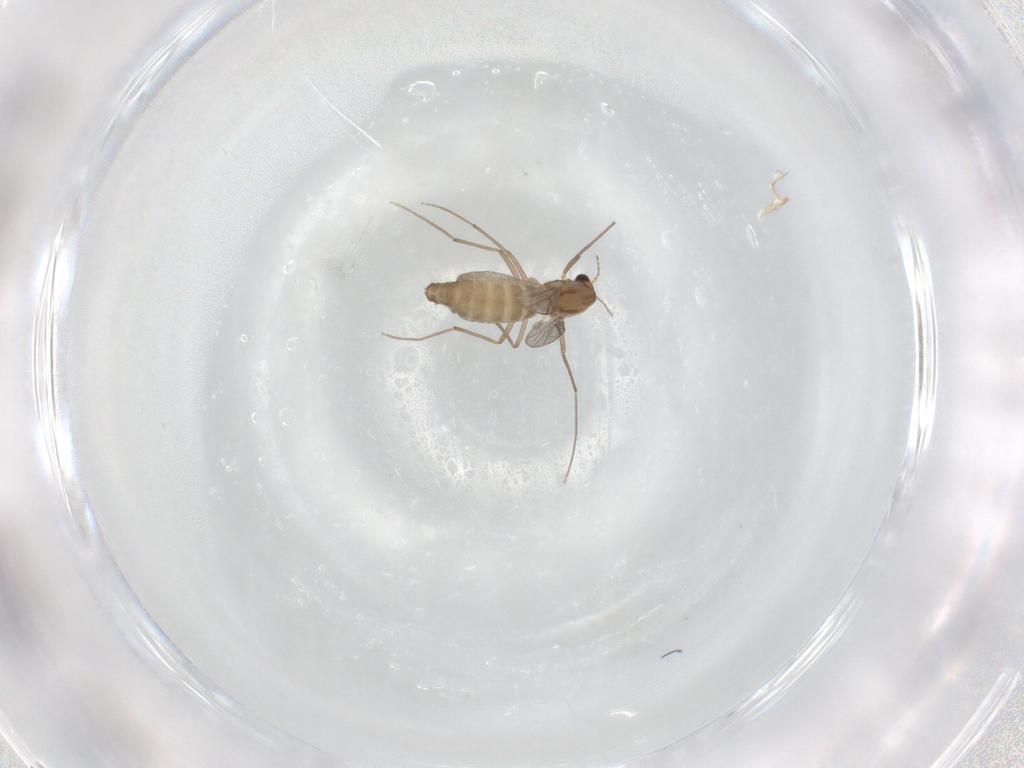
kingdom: Animalia
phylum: Arthropoda
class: Insecta
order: Diptera
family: Chironomidae
